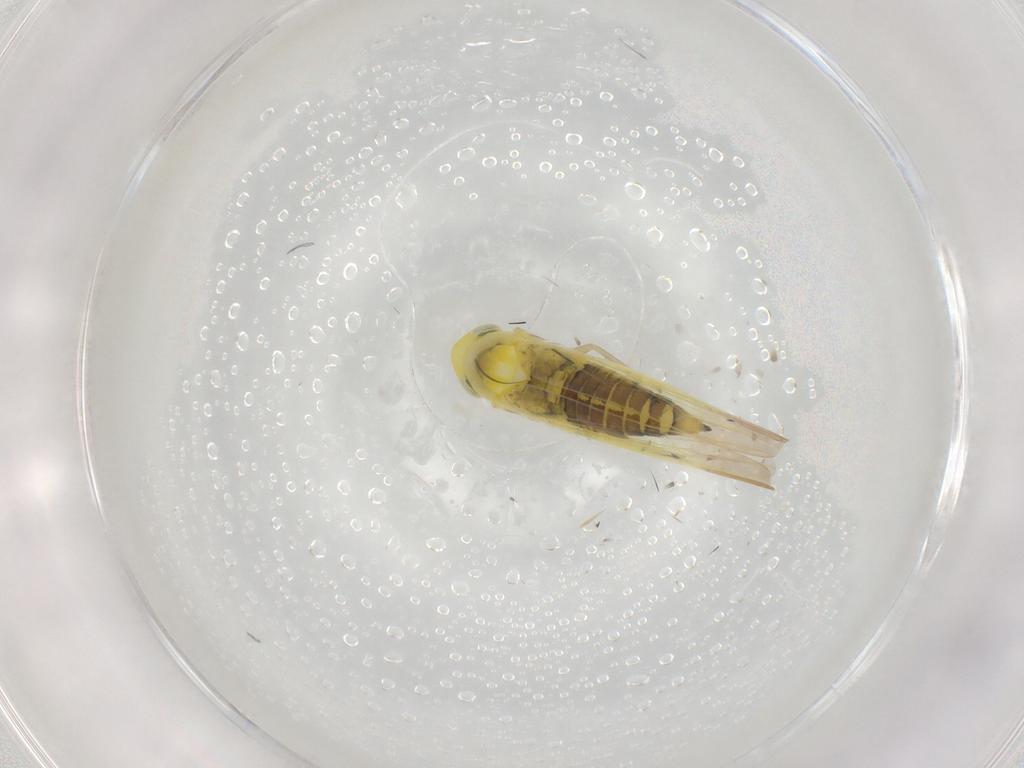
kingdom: Animalia
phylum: Arthropoda
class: Insecta
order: Hemiptera
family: Cicadellidae
